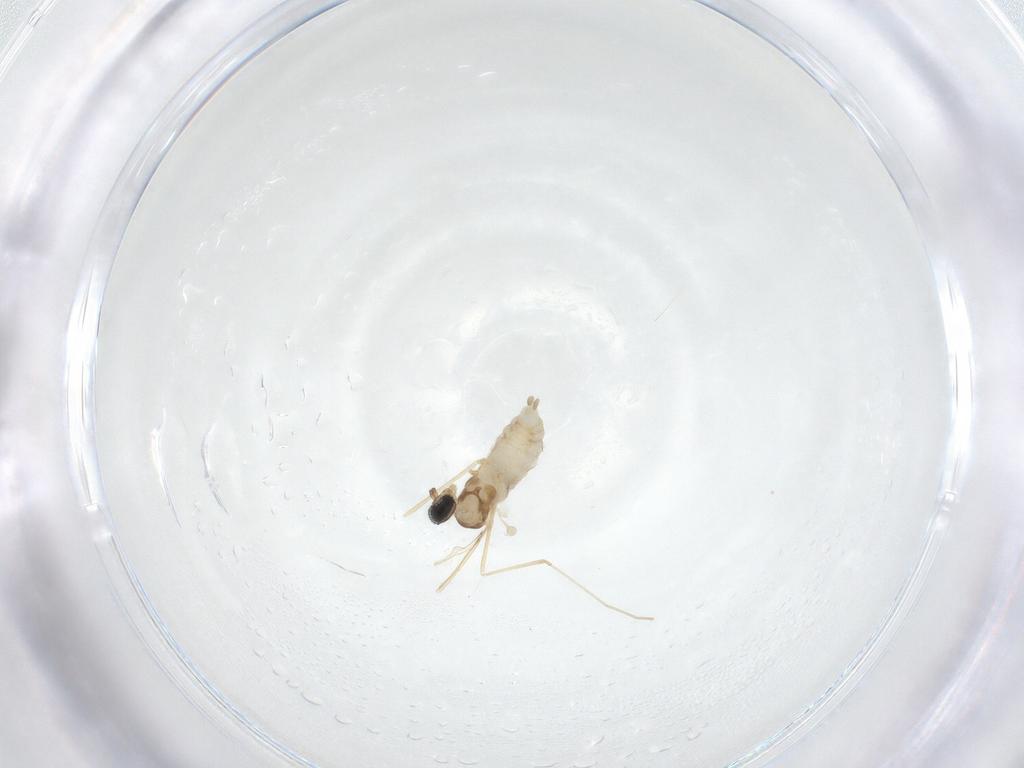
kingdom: Animalia
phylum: Arthropoda
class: Insecta
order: Diptera
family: Cecidomyiidae
